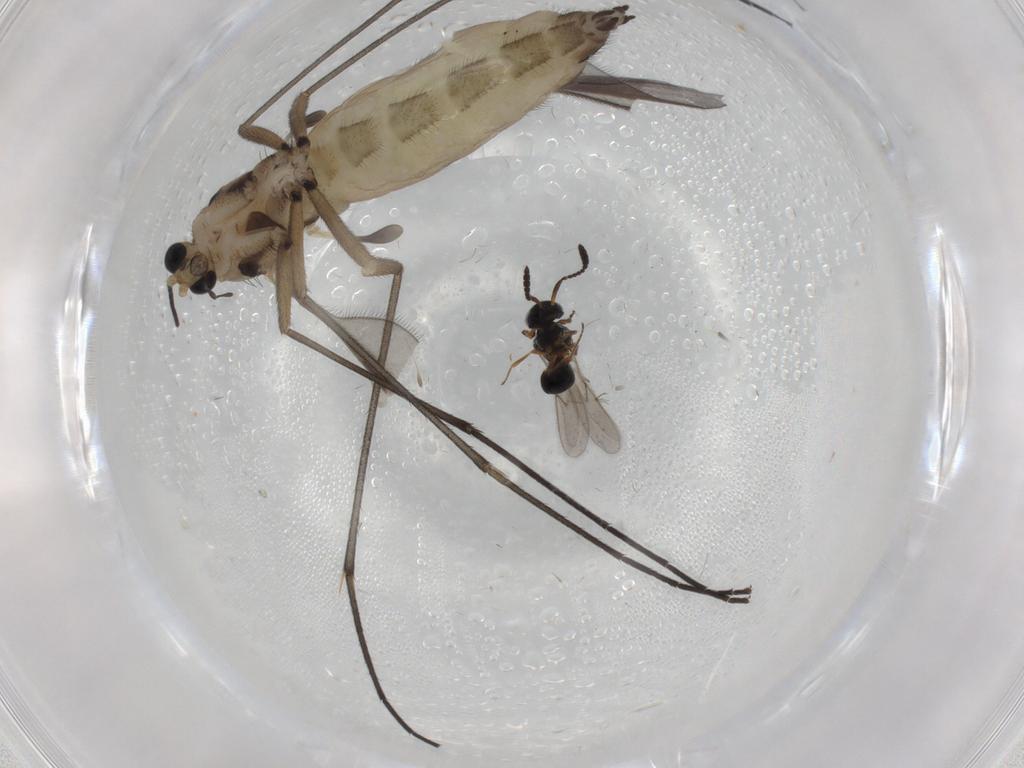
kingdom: Animalia
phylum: Arthropoda
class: Insecta
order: Diptera
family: Sciaridae
